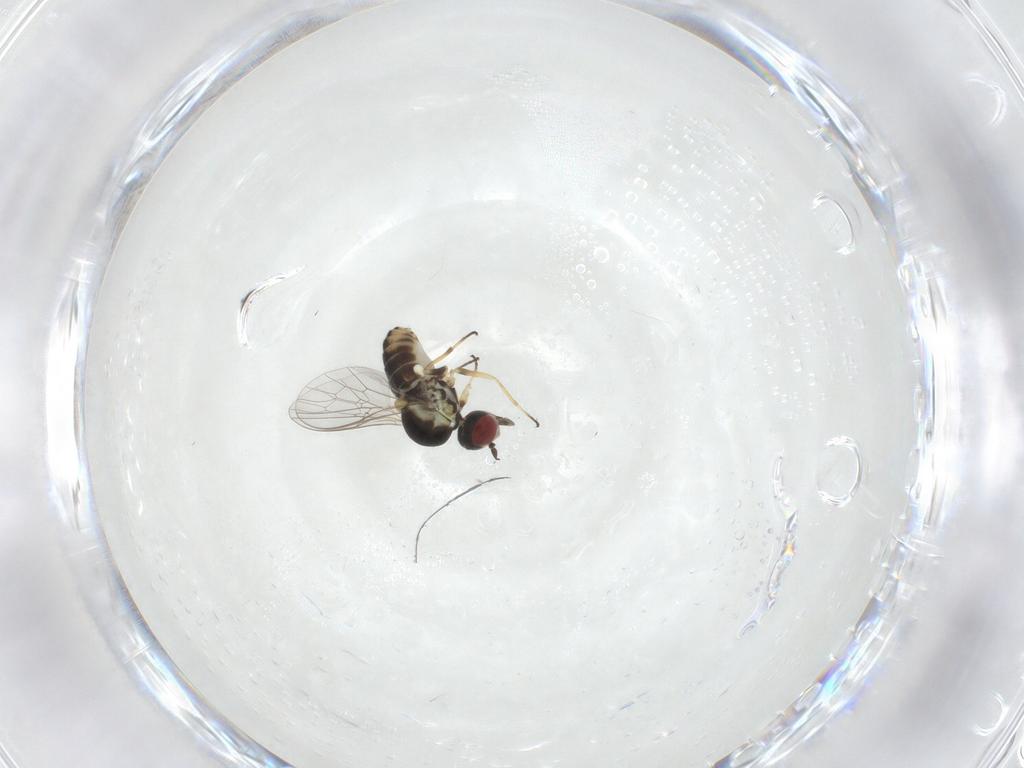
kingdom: Animalia
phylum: Arthropoda
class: Insecta
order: Diptera
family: Mythicomyiidae
